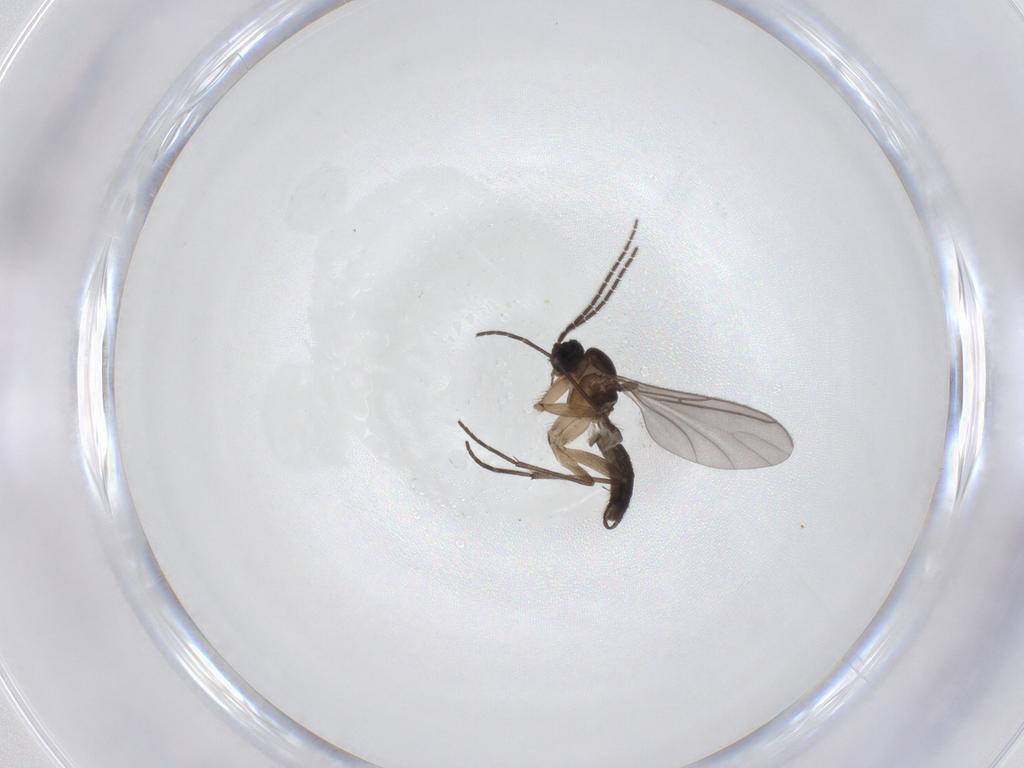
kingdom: Animalia
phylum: Arthropoda
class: Insecta
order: Diptera
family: Sciaridae
